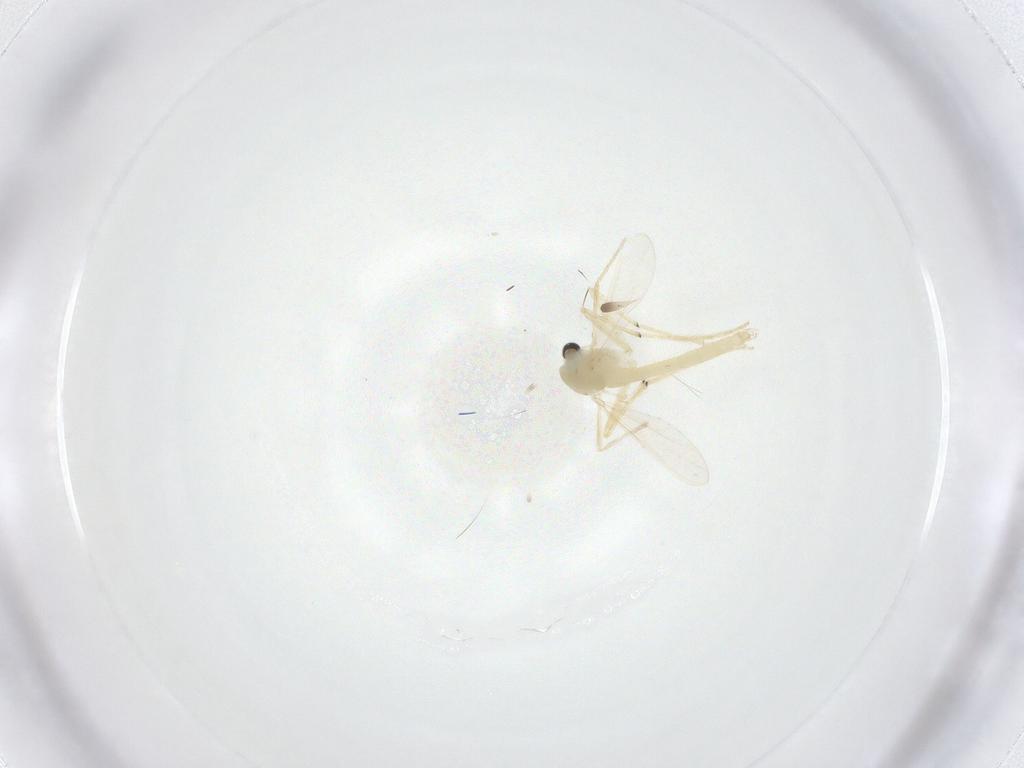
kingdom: Animalia
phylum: Arthropoda
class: Insecta
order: Diptera
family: Chironomidae
